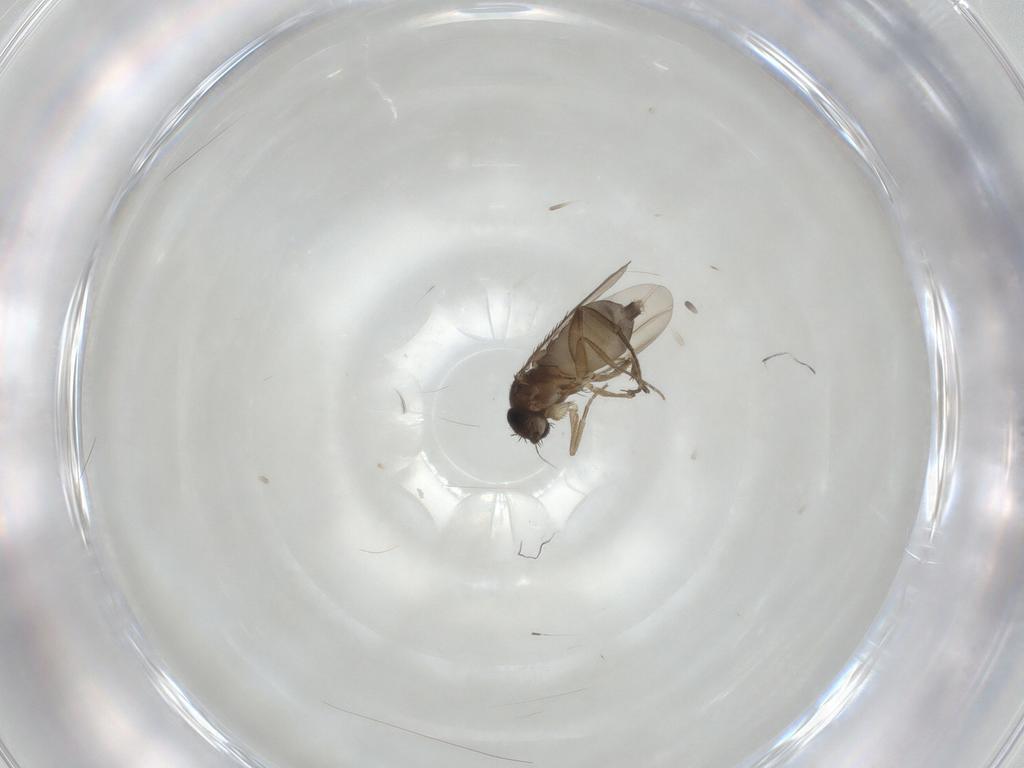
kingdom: Animalia
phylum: Arthropoda
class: Insecta
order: Diptera
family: Phoridae
